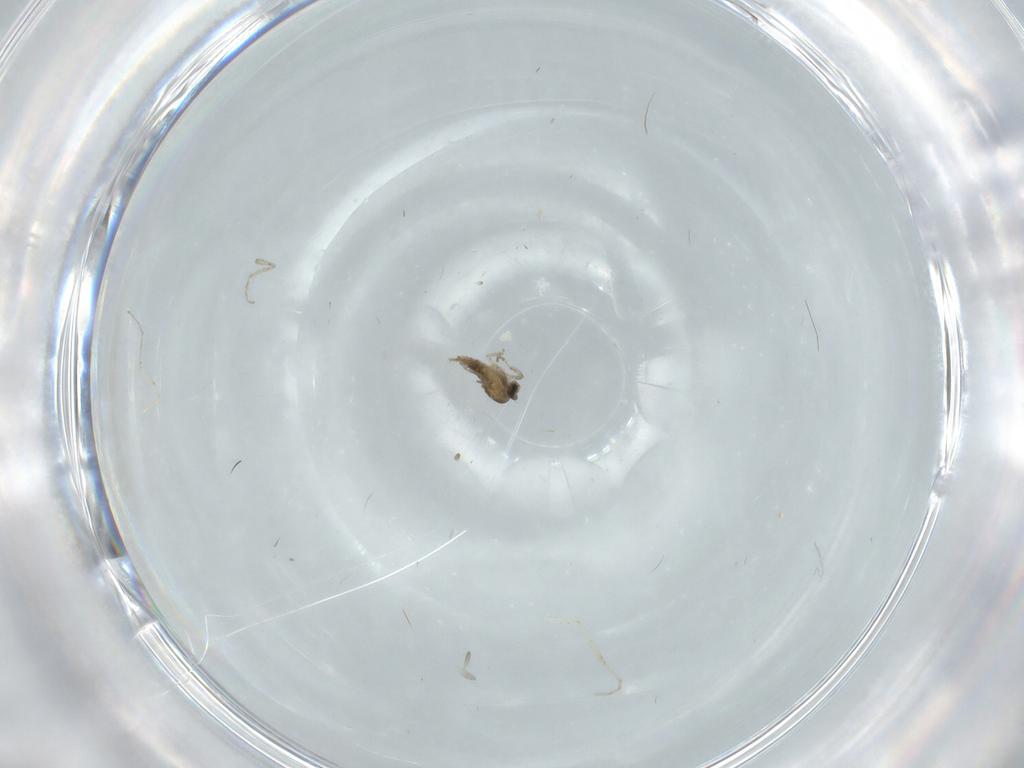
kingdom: Animalia
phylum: Arthropoda
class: Insecta
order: Diptera
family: Cecidomyiidae
